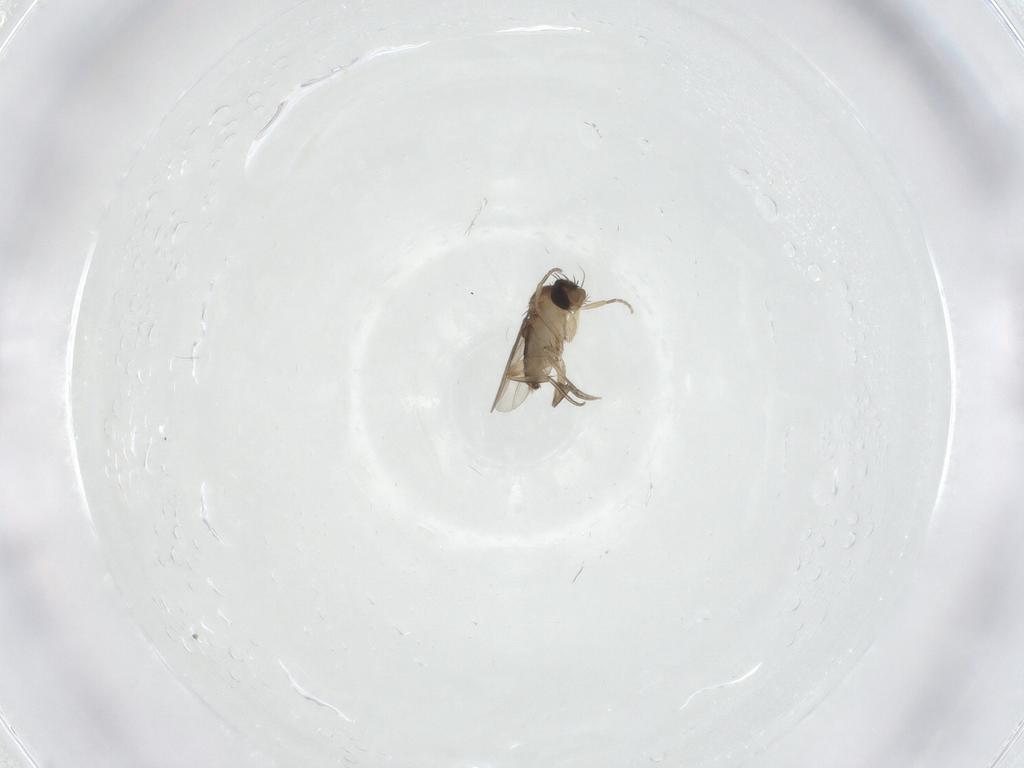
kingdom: Animalia
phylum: Arthropoda
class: Insecta
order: Diptera
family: Phoridae
